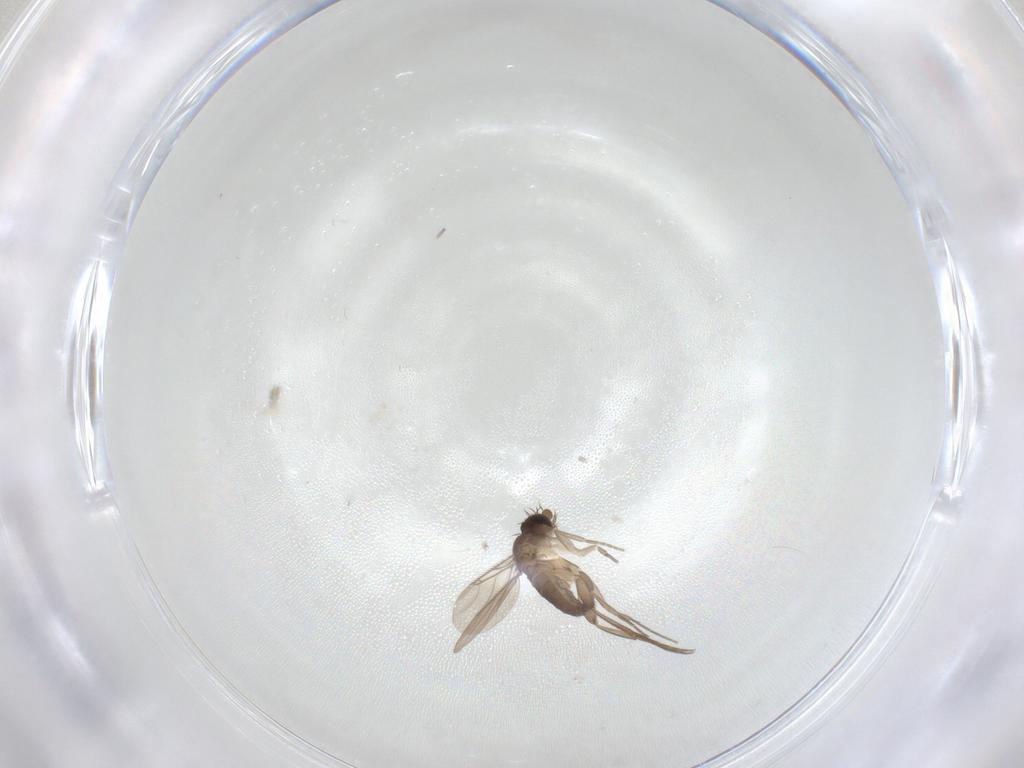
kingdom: Animalia
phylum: Arthropoda
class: Insecta
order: Diptera
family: Phoridae
